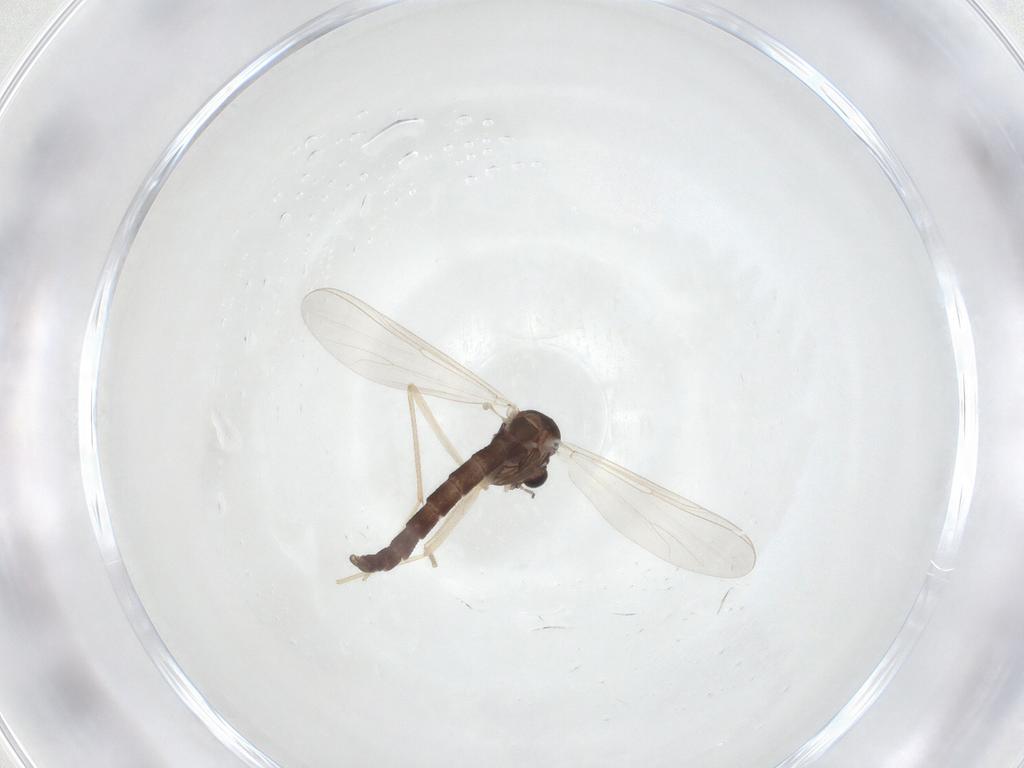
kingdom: Animalia
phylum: Arthropoda
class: Insecta
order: Diptera
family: Chironomidae
